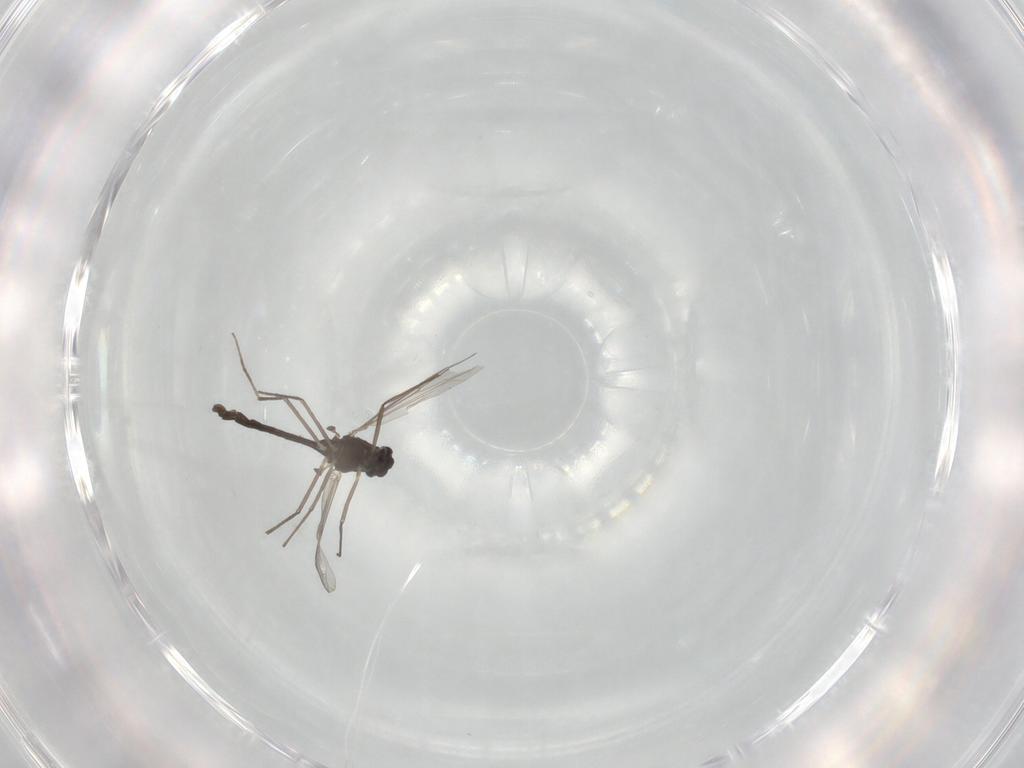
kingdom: Animalia
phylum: Arthropoda
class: Insecta
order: Diptera
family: Chironomidae
